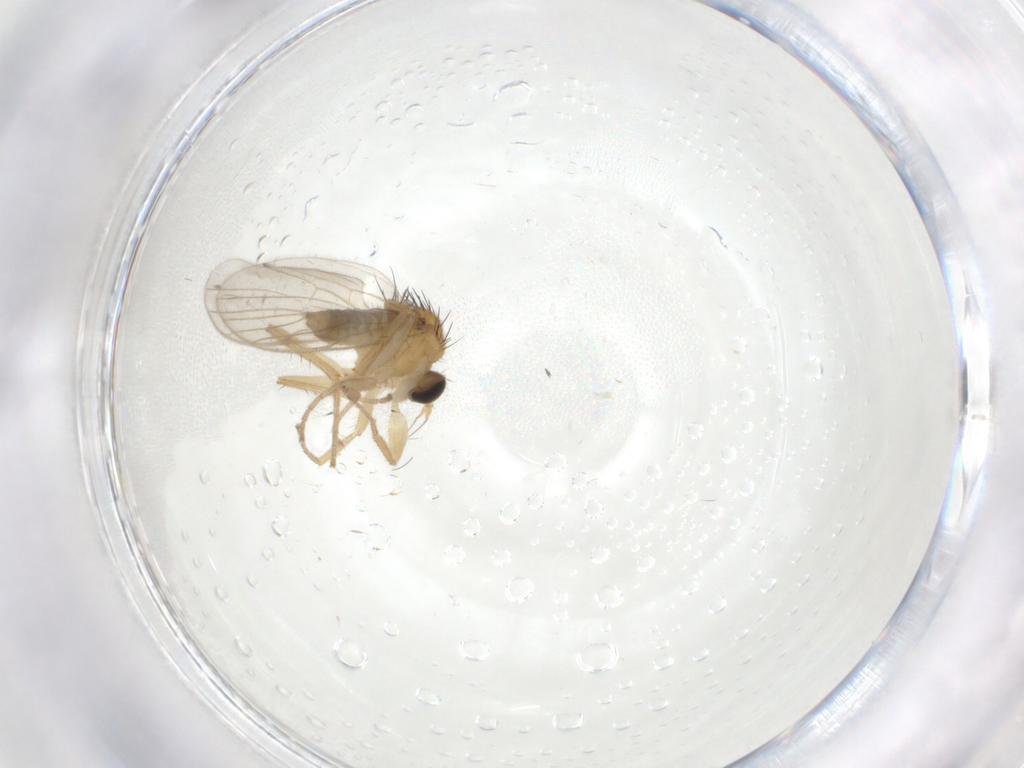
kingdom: Animalia
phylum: Arthropoda
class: Insecta
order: Diptera
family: Hybotidae
